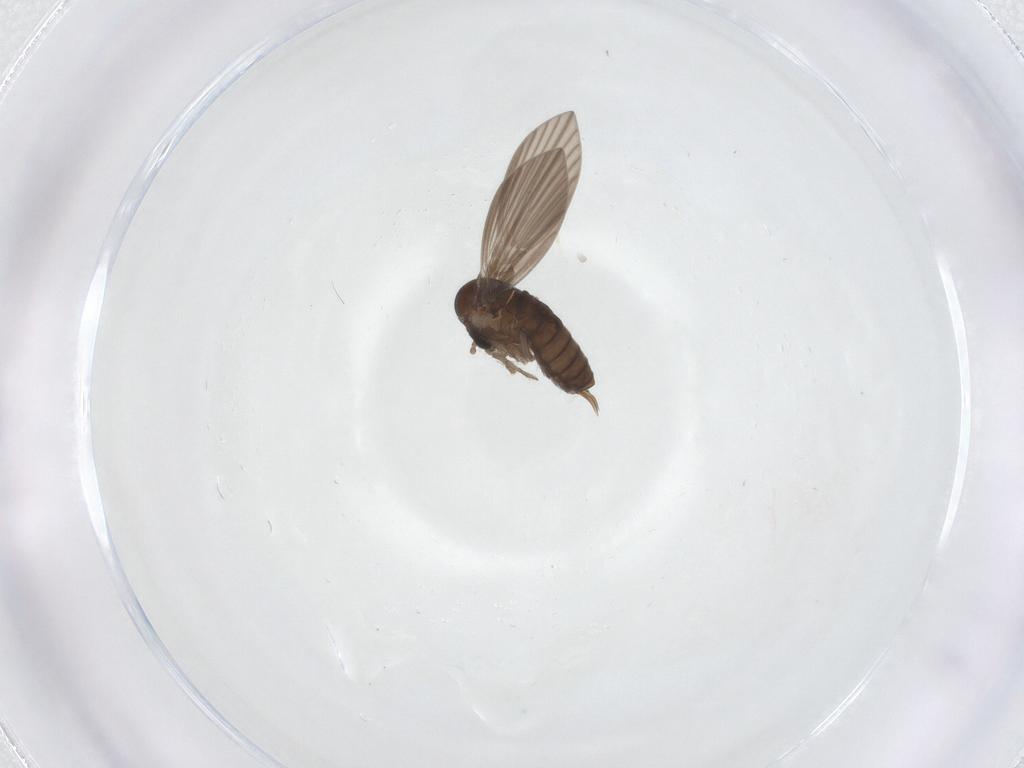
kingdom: Animalia
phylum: Arthropoda
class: Insecta
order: Diptera
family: Psychodidae
